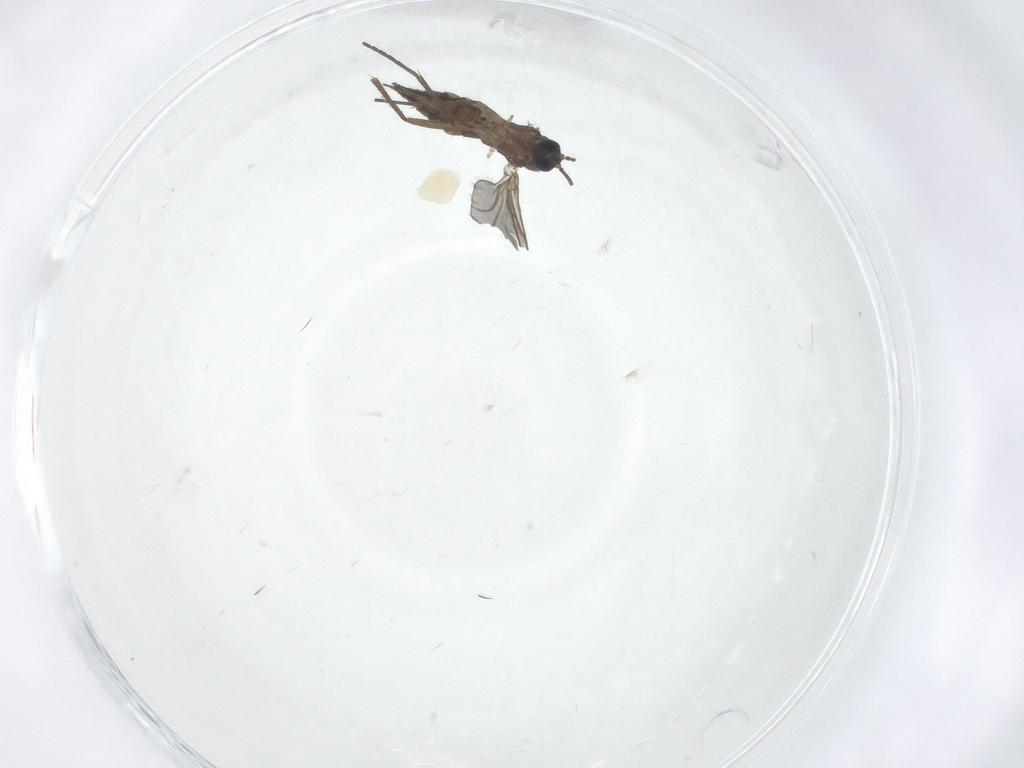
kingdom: Animalia
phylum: Arthropoda
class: Insecta
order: Diptera
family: Sciaridae
